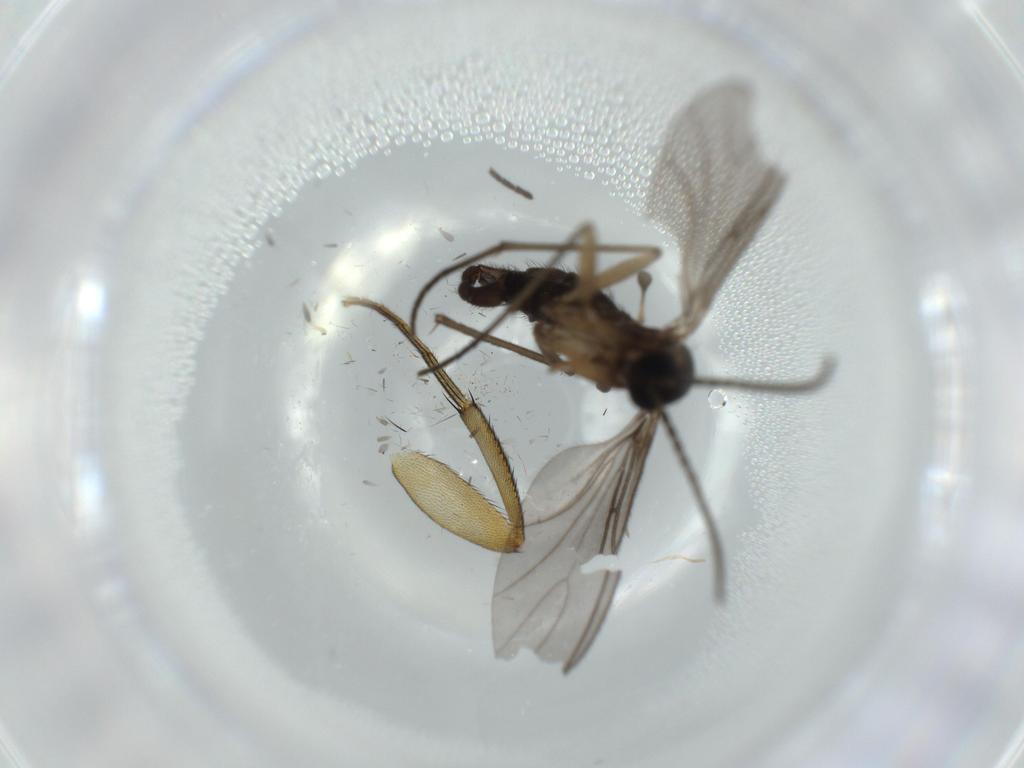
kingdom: Animalia
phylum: Arthropoda
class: Insecta
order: Diptera
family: Sciaridae
